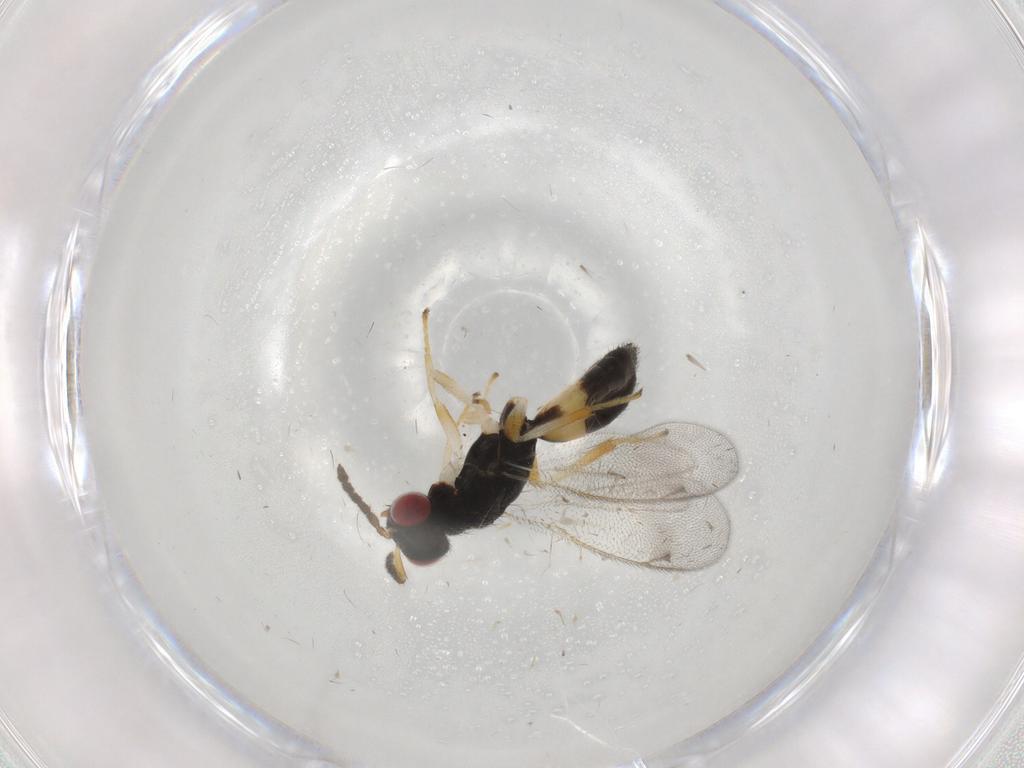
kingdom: Animalia
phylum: Arthropoda
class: Insecta
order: Hymenoptera
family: Eulophidae
